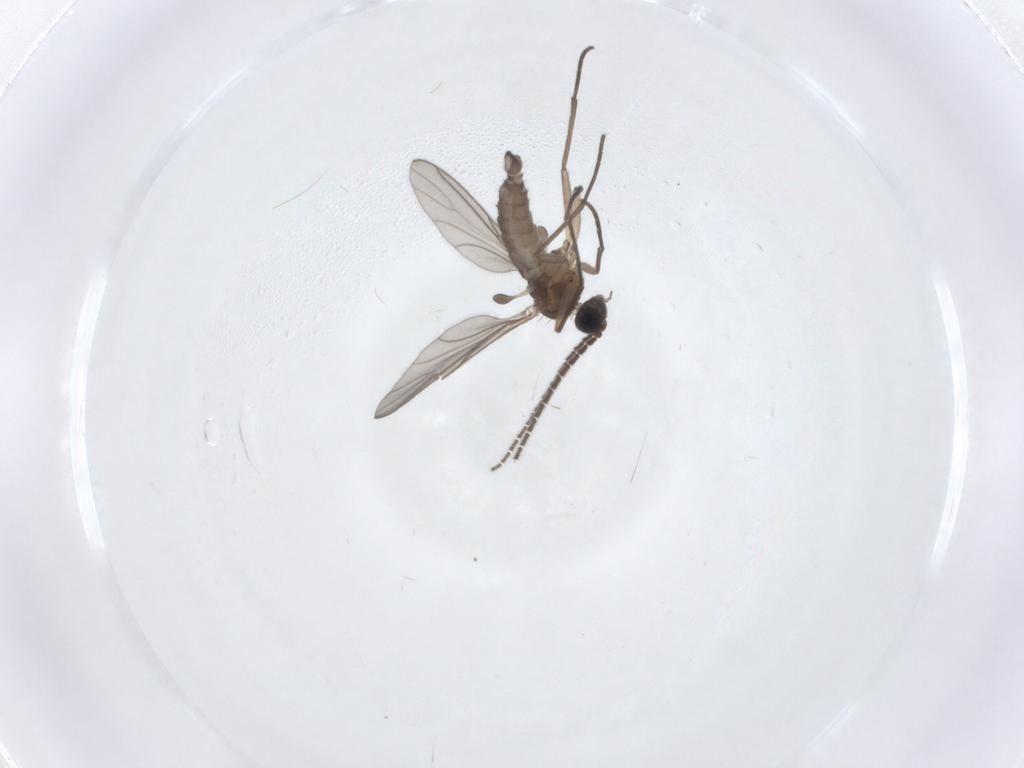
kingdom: Animalia
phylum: Arthropoda
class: Insecta
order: Diptera
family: Sciaridae
